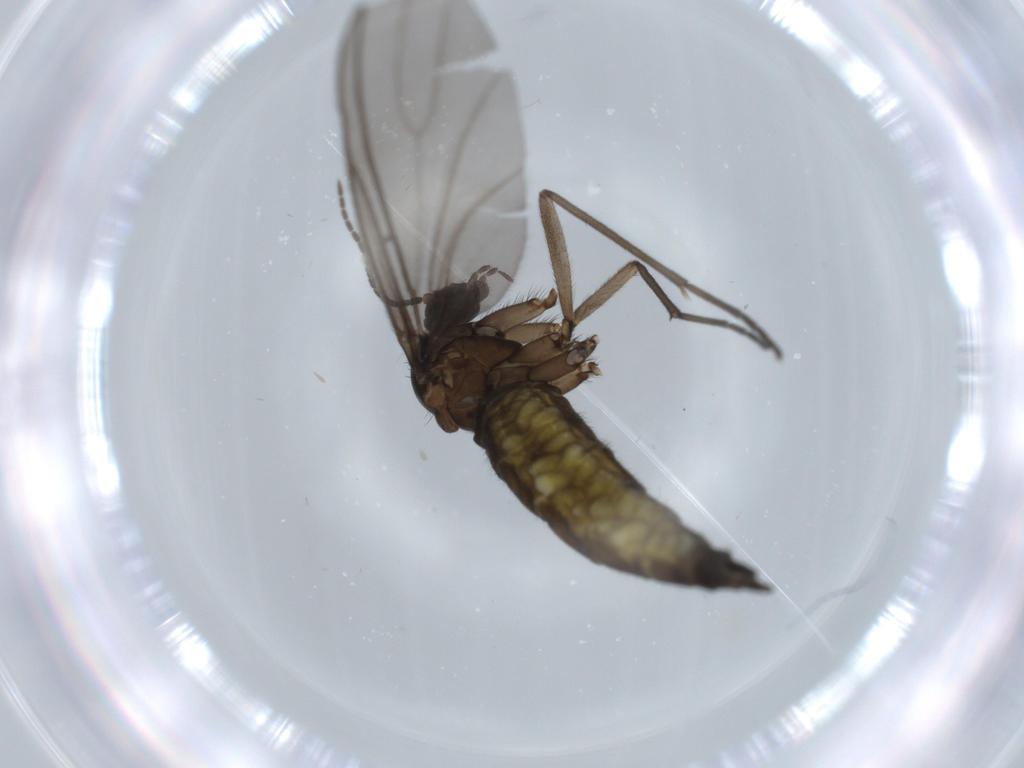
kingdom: Animalia
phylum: Arthropoda
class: Insecta
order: Diptera
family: Sciaridae
